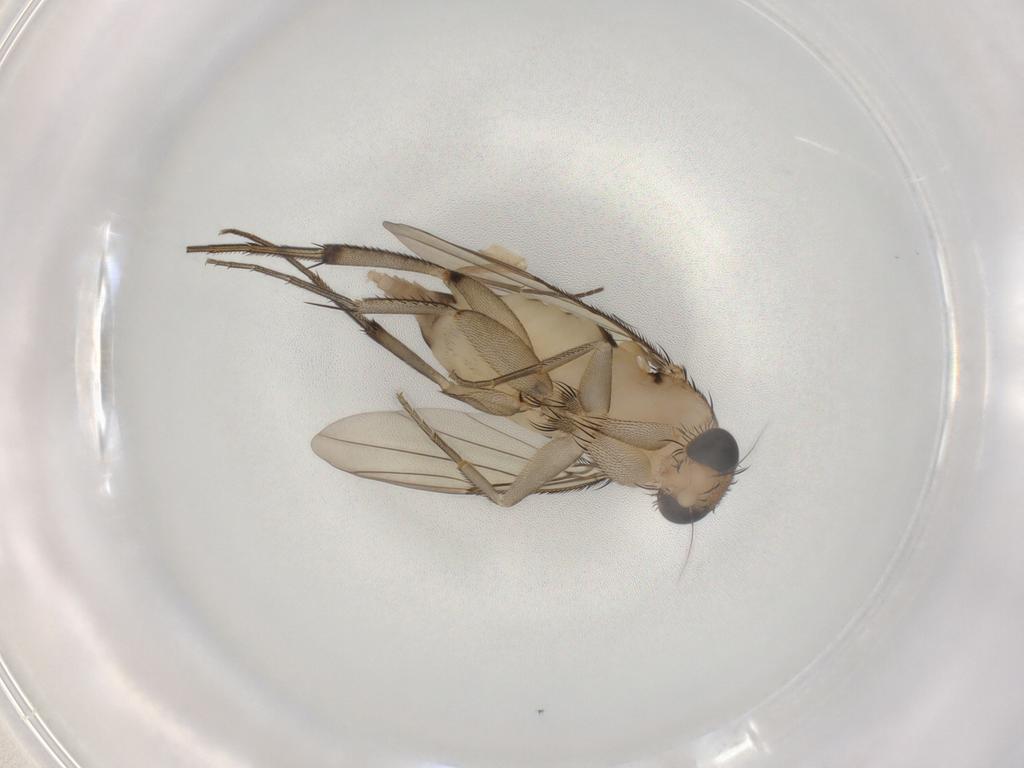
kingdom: Animalia
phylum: Arthropoda
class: Insecta
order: Diptera
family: Phoridae
